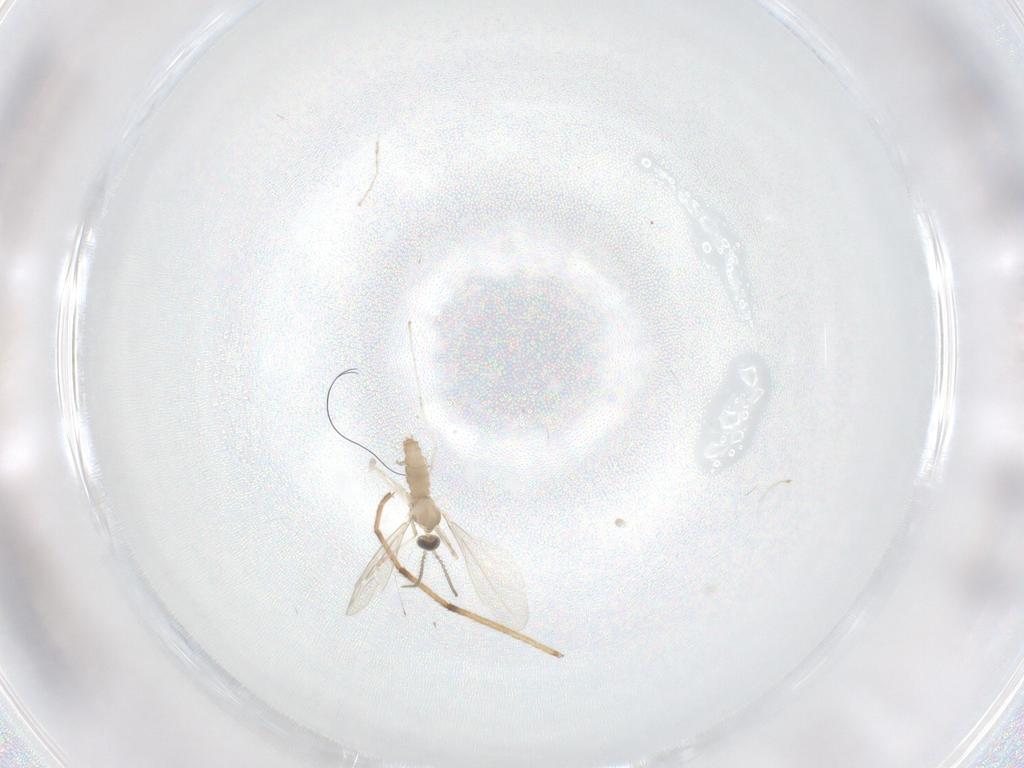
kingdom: Animalia
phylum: Arthropoda
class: Insecta
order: Diptera
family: Cecidomyiidae
